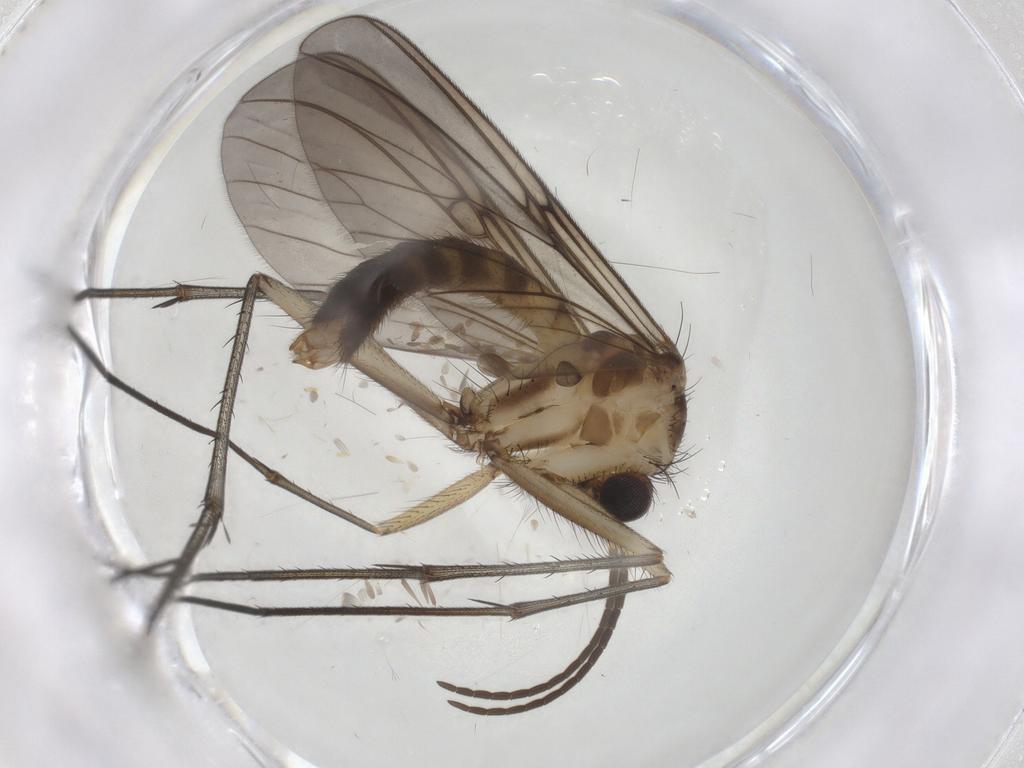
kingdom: Animalia
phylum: Arthropoda
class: Insecta
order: Diptera
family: Mycetophilidae
